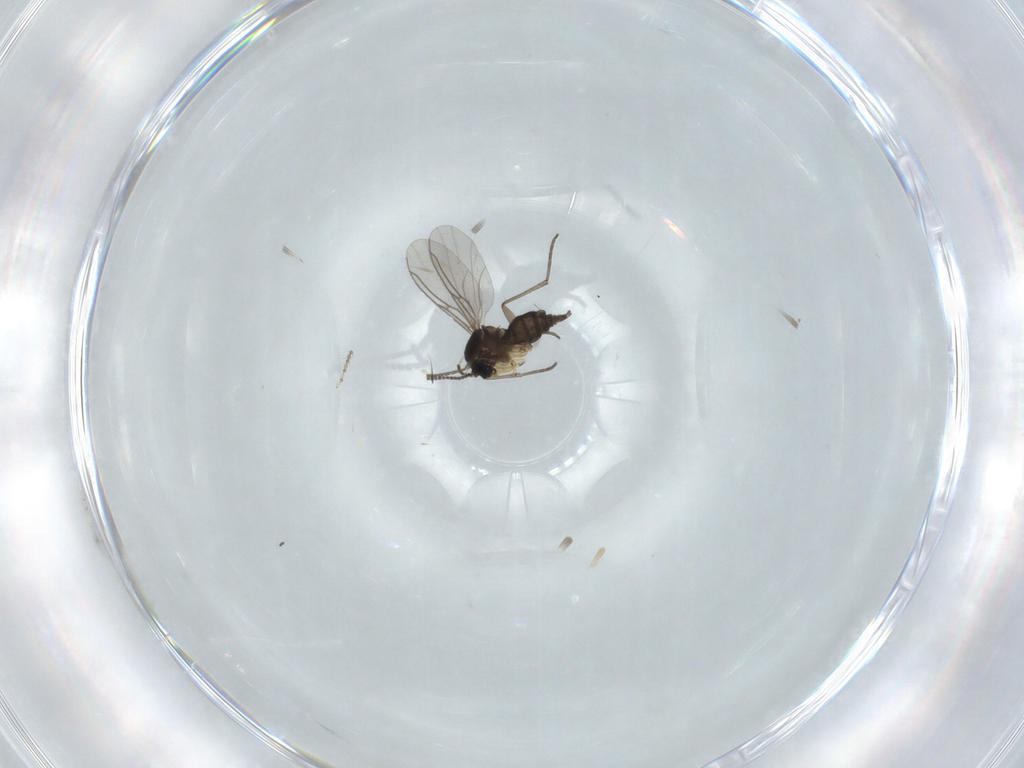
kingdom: Animalia
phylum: Arthropoda
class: Insecta
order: Diptera
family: Sciaridae
